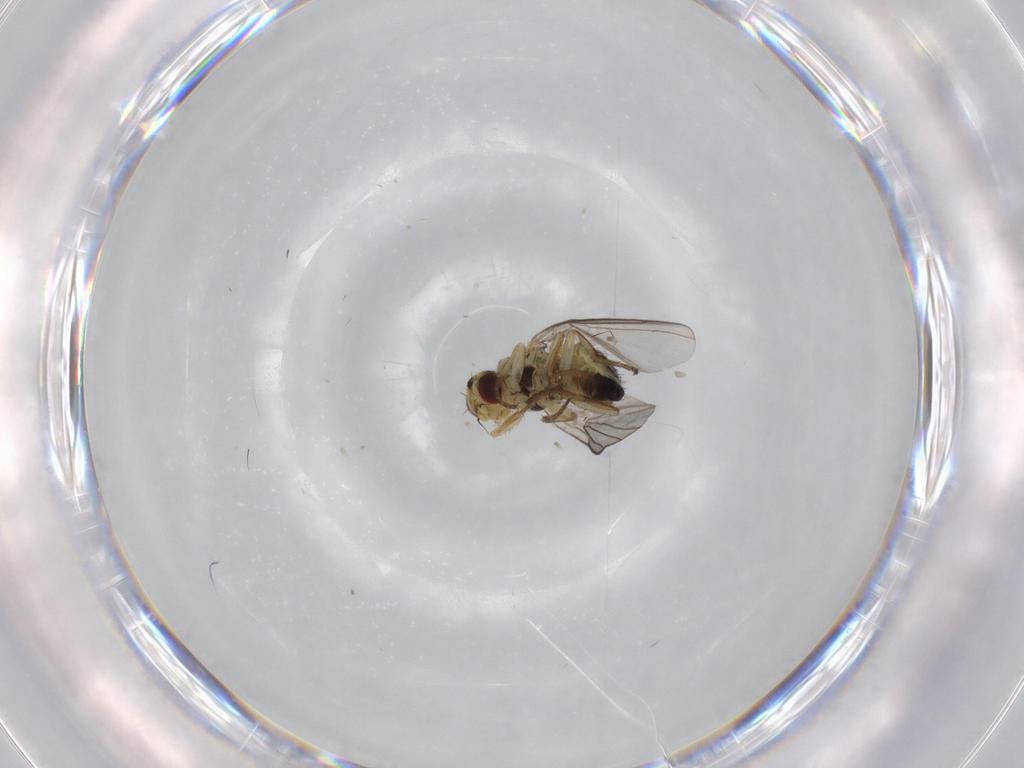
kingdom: Animalia
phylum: Arthropoda
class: Insecta
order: Diptera
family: Agromyzidae
